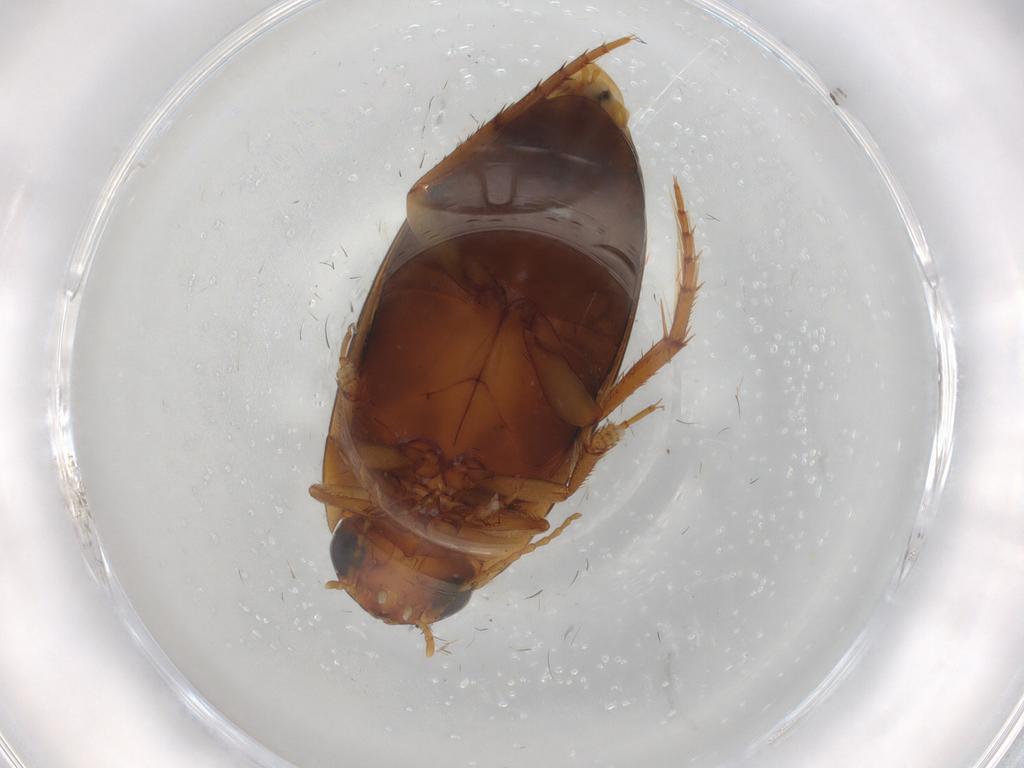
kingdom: Animalia
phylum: Arthropoda
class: Insecta
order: Coleoptera
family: Dytiscidae
